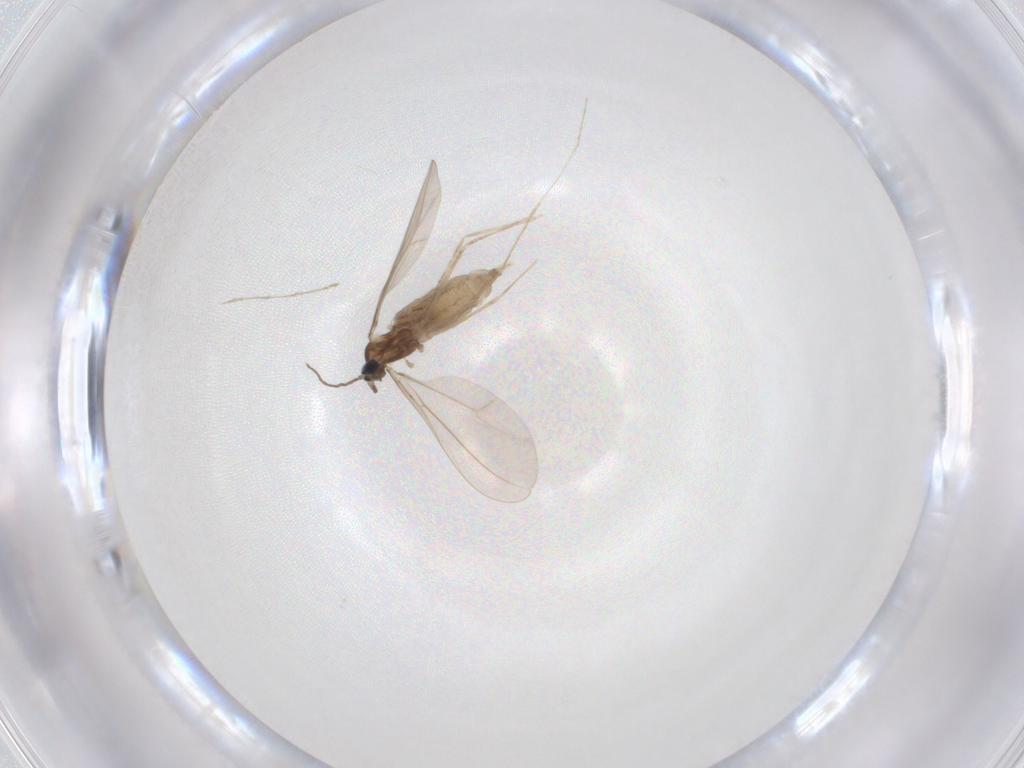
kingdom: Animalia
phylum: Arthropoda
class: Insecta
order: Diptera
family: Cecidomyiidae
